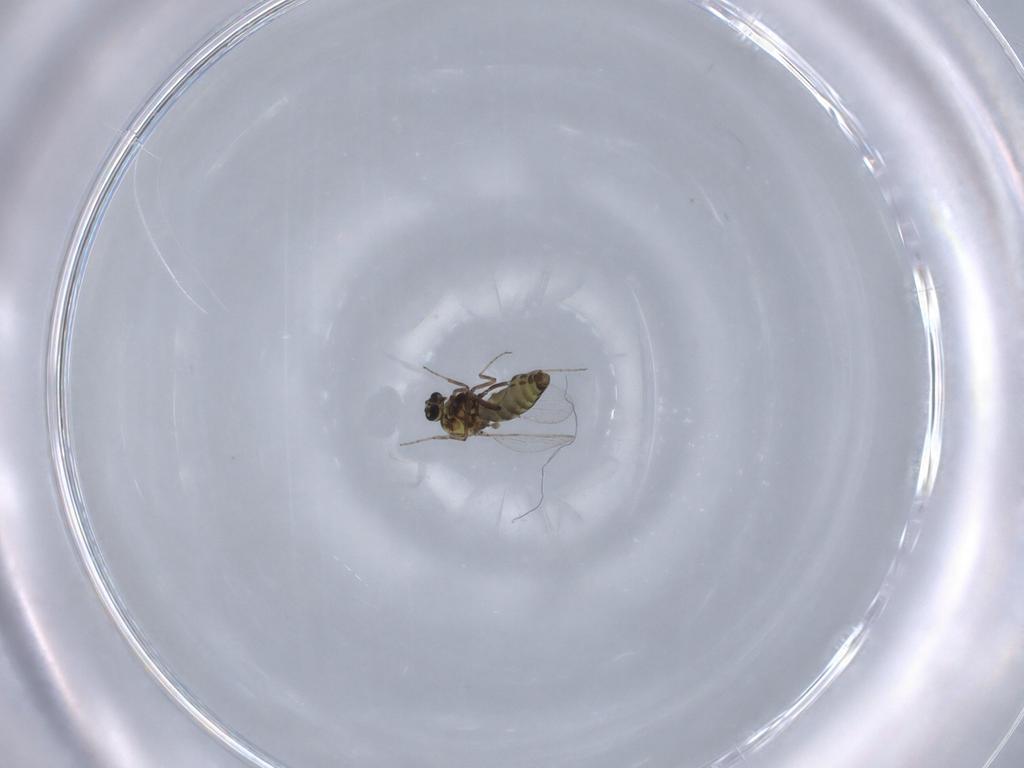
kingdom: Animalia
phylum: Arthropoda
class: Insecta
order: Diptera
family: Ceratopogonidae
